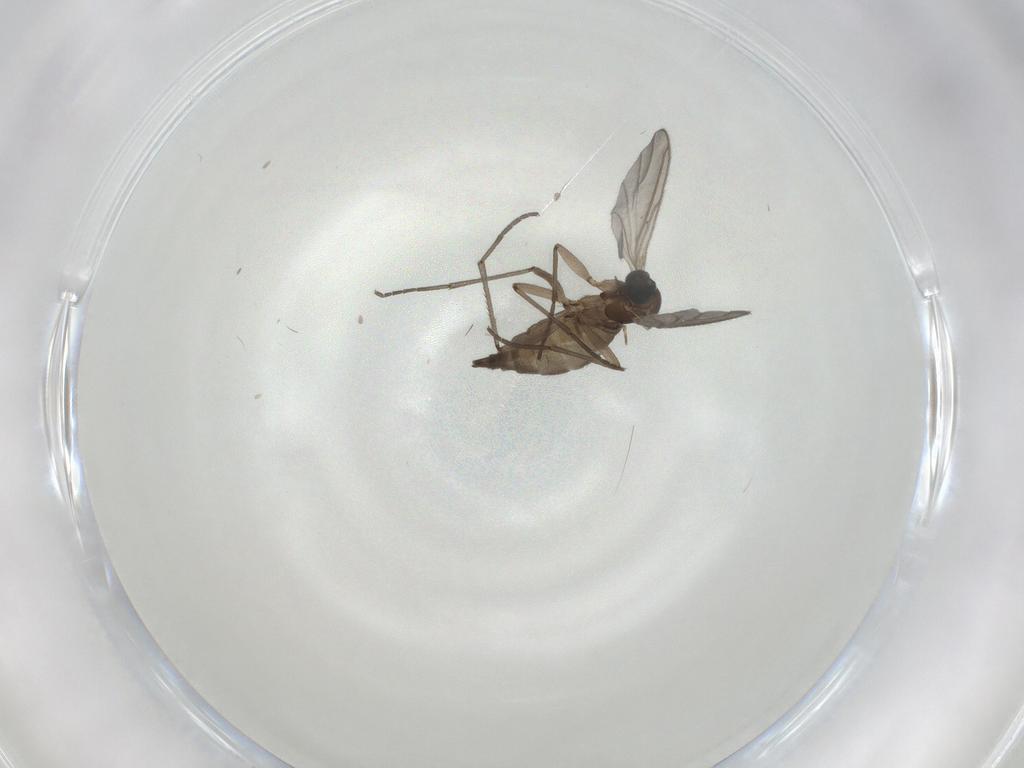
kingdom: Animalia
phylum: Arthropoda
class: Insecta
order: Diptera
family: Sciaridae
